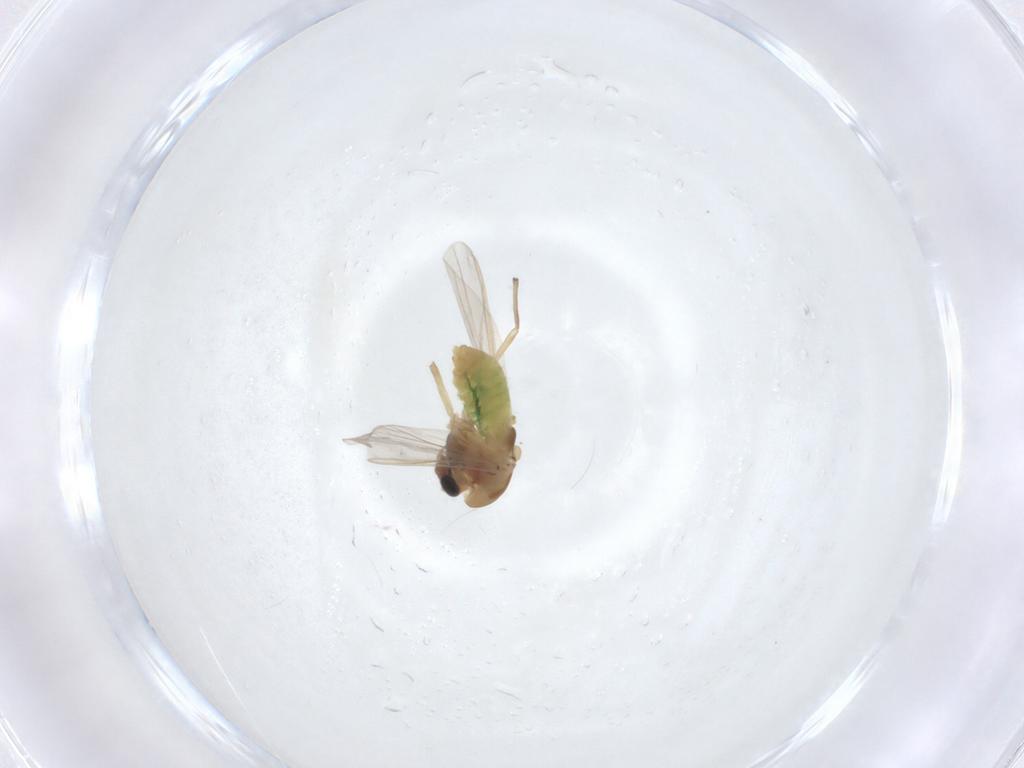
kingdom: Animalia
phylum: Arthropoda
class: Insecta
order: Diptera
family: Chironomidae
